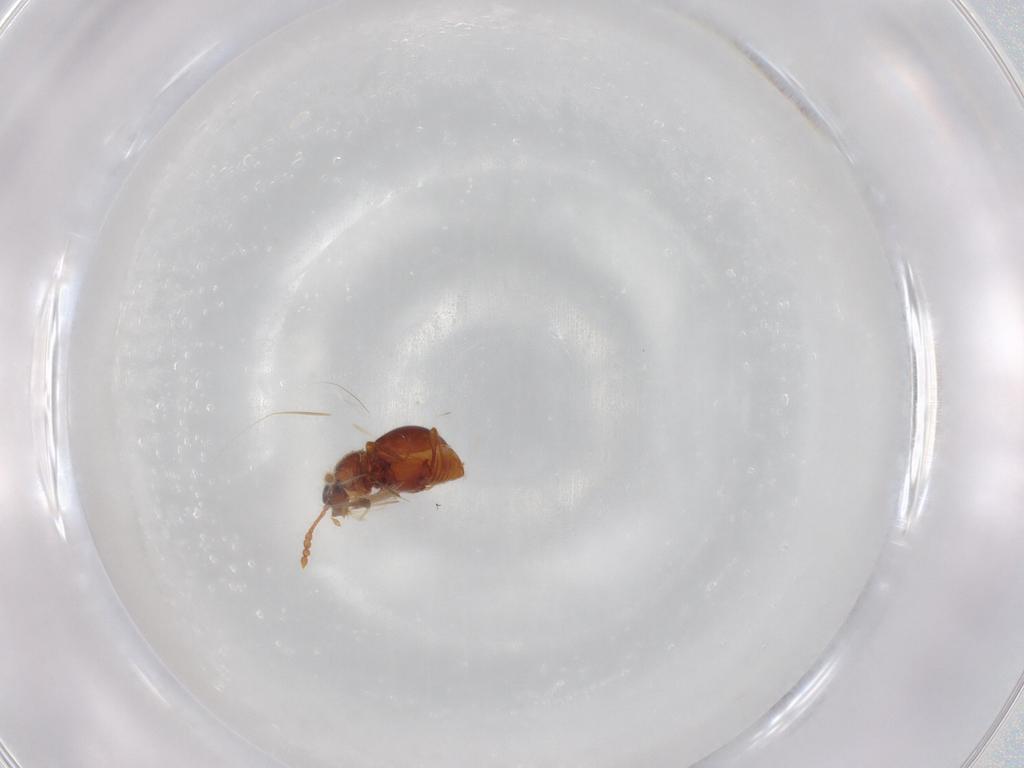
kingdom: Animalia
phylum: Arthropoda
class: Insecta
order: Coleoptera
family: Staphylinidae
